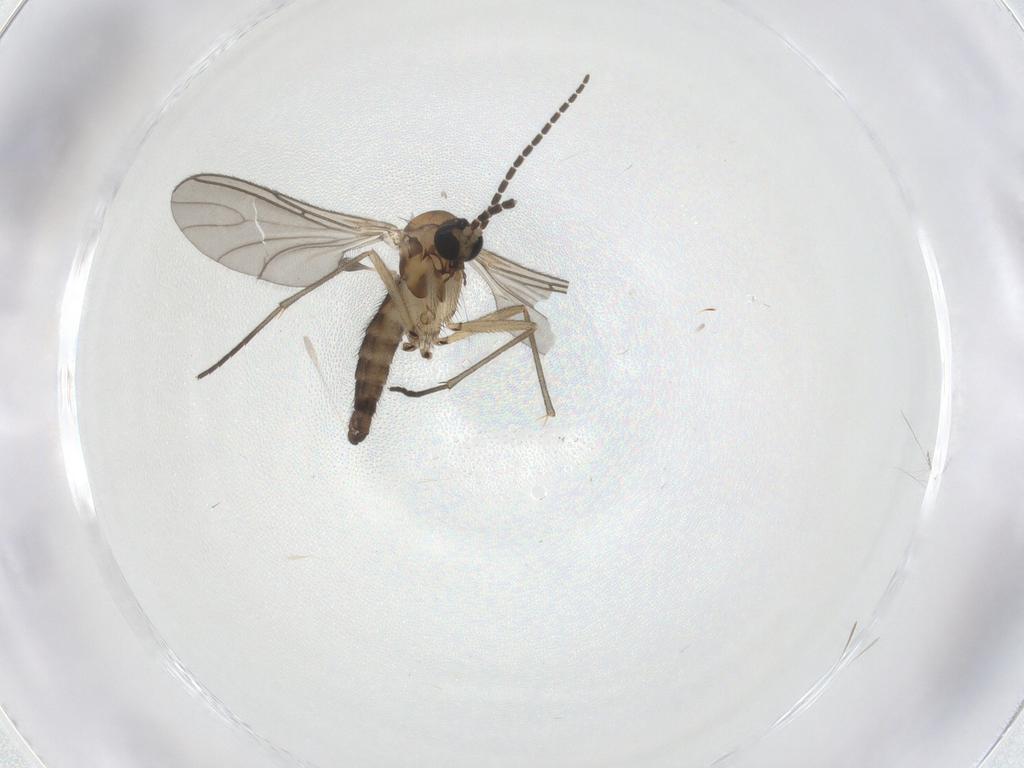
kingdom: Animalia
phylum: Arthropoda
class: Insecta
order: Diptera
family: Sciaridae
